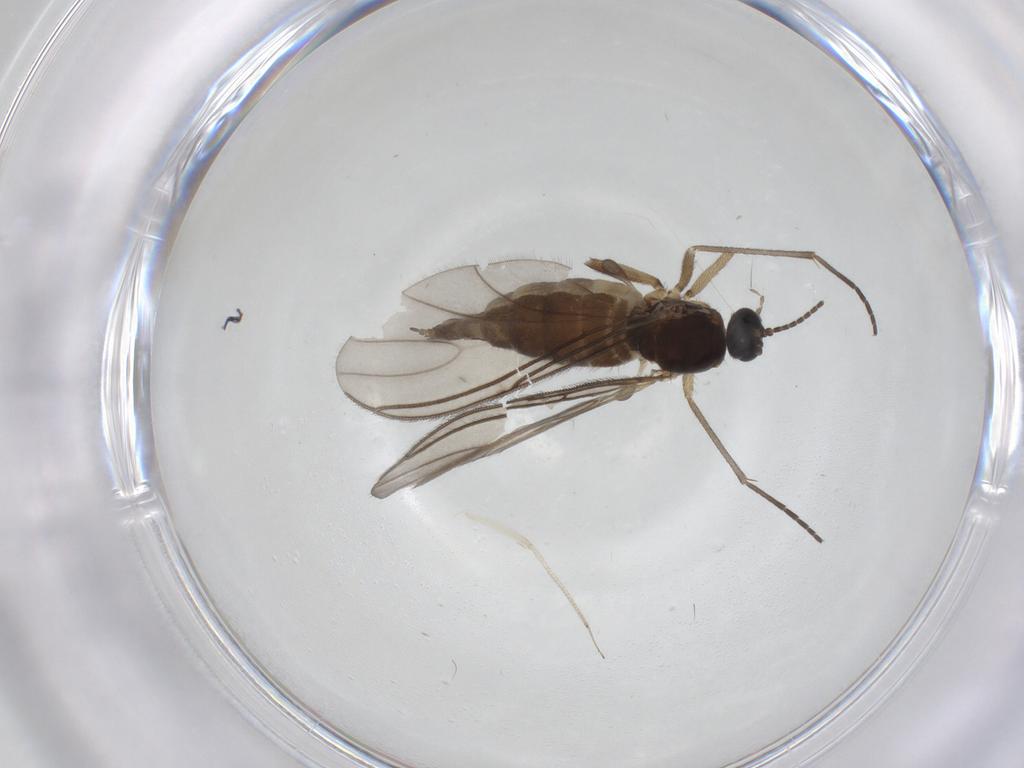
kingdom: Animalia
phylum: Arthropoda
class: Insecta
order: Diptera
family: Sciaridae
